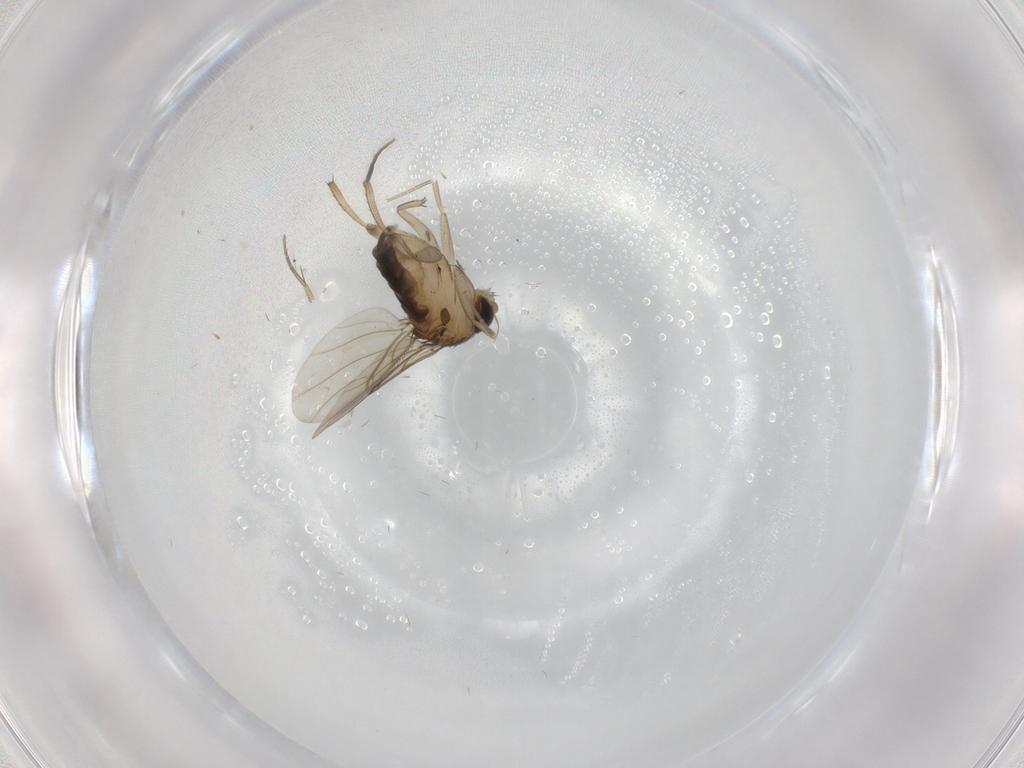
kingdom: Animalia
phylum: Arthropoda
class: Insecta
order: Diptera
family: Phoridae
